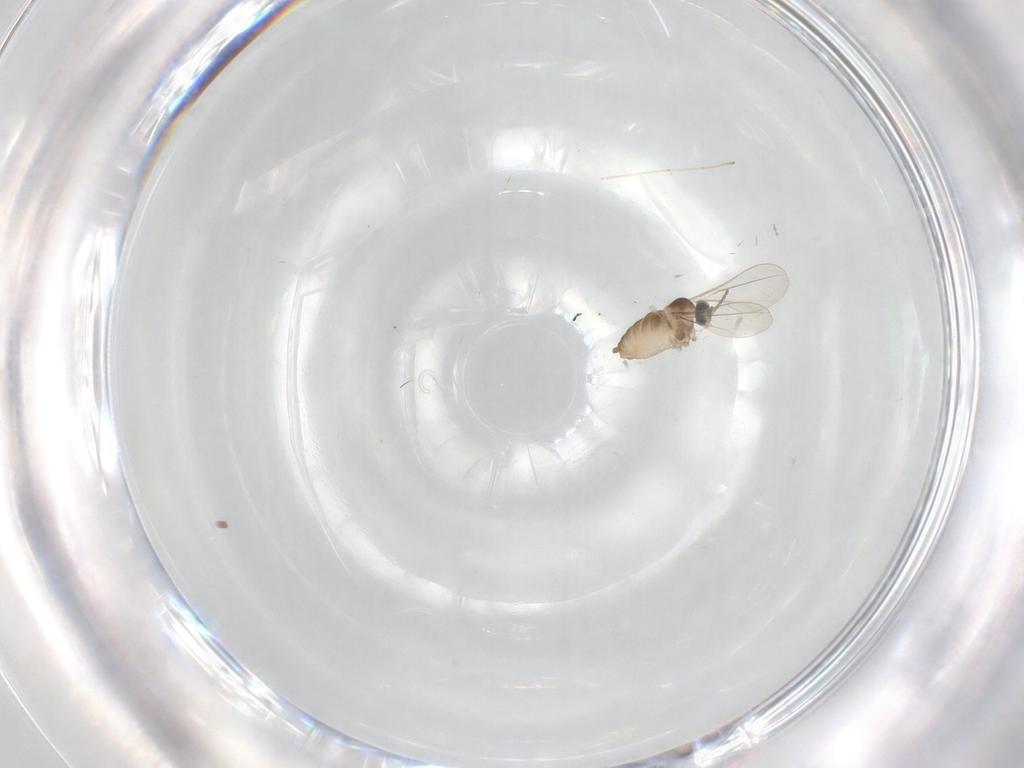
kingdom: Animalia
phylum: Arthropoda
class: Insecta
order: Diptera
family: Cecidomyiidae
